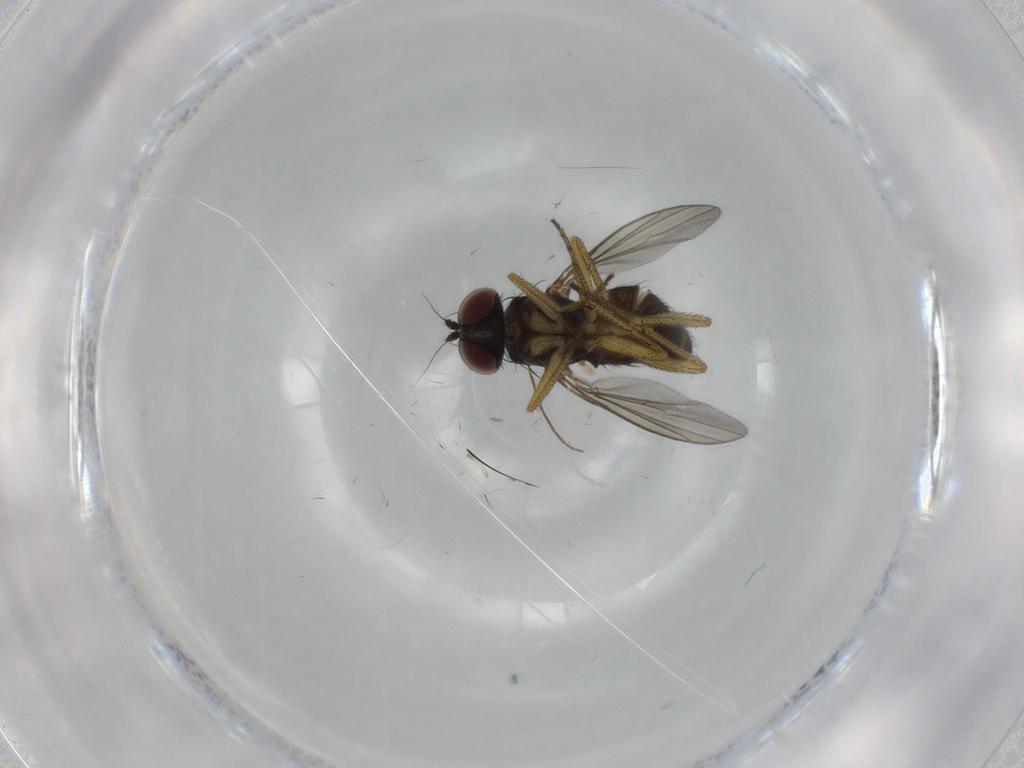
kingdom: Animalia
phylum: Arthropoda
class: Insecta
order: Diptera
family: Dolichopodidae
